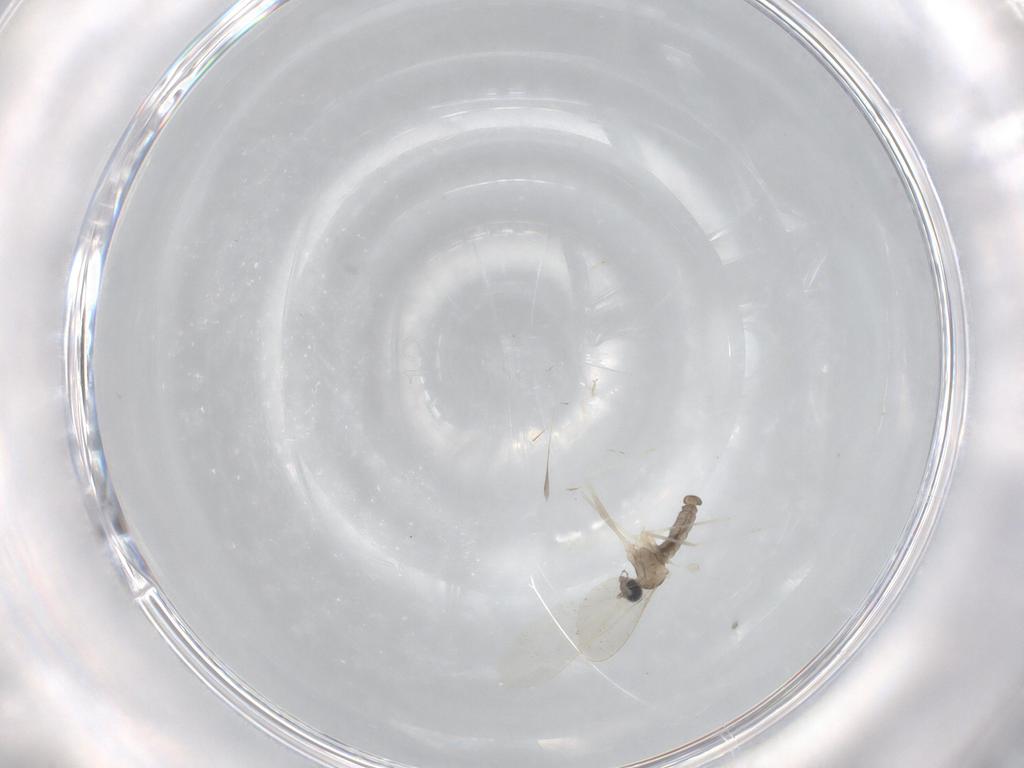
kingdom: Animalia
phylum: Arthropoda
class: Insecta
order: Diptera
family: Cecidomyiidae
